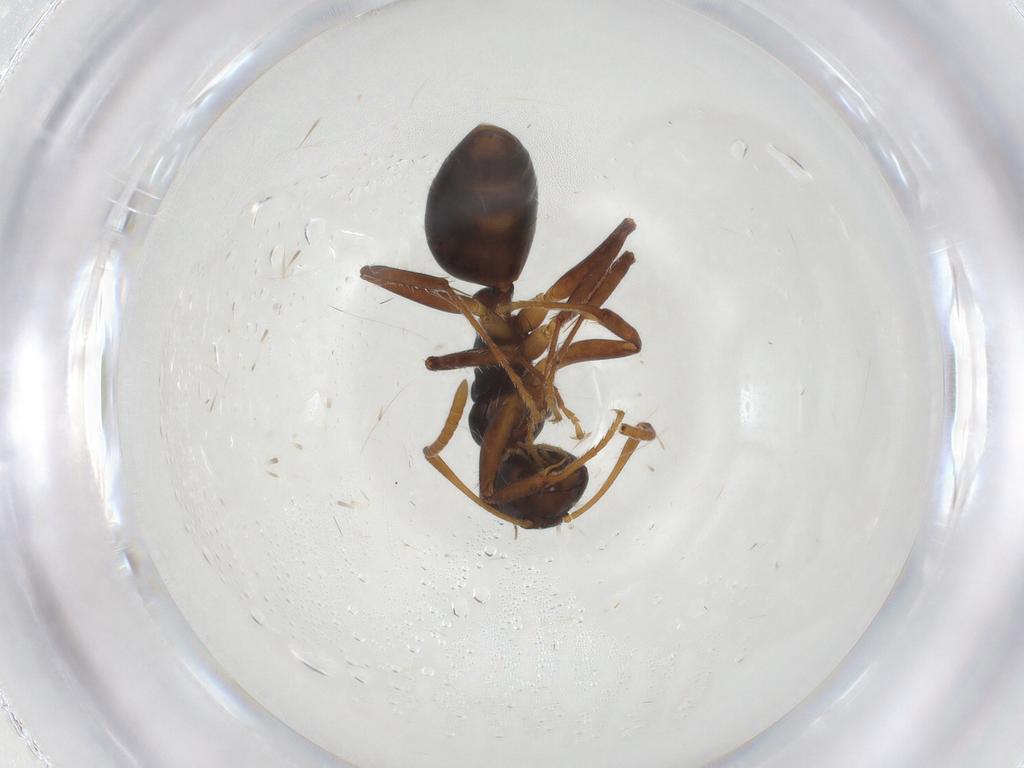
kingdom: Animalia
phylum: Arthropoda
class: Insecta
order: Hymenoptera
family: Formicidae
